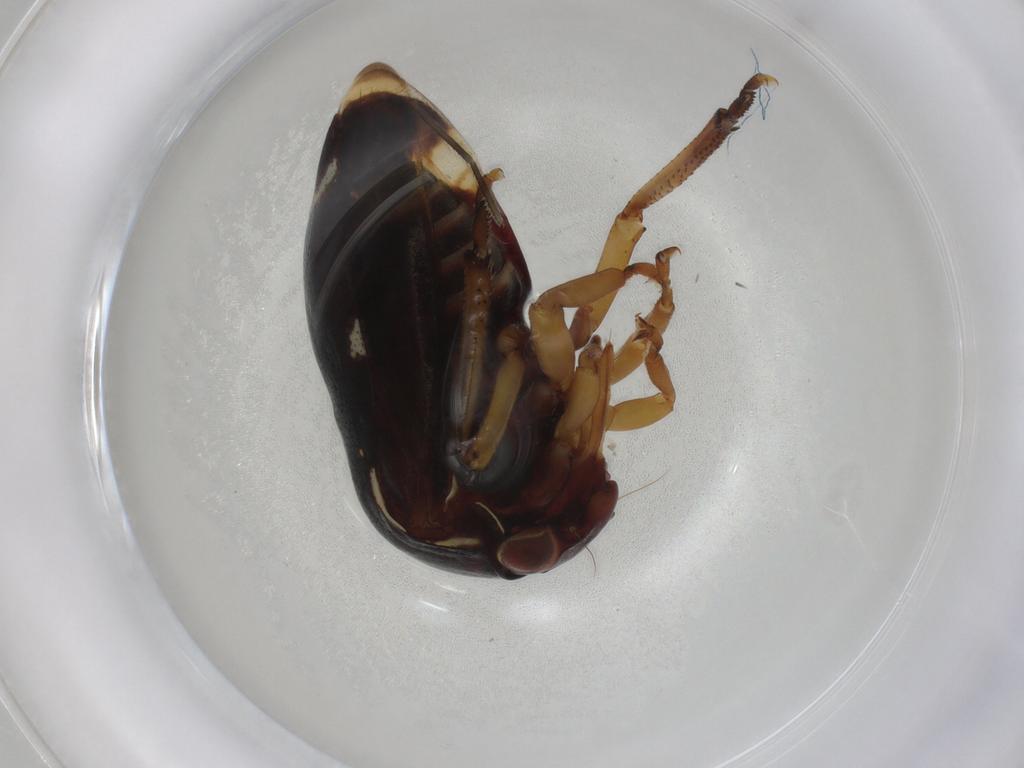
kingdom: Animalia
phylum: Arthropoda
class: Insecta
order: Hemiptera
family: Membracidae
